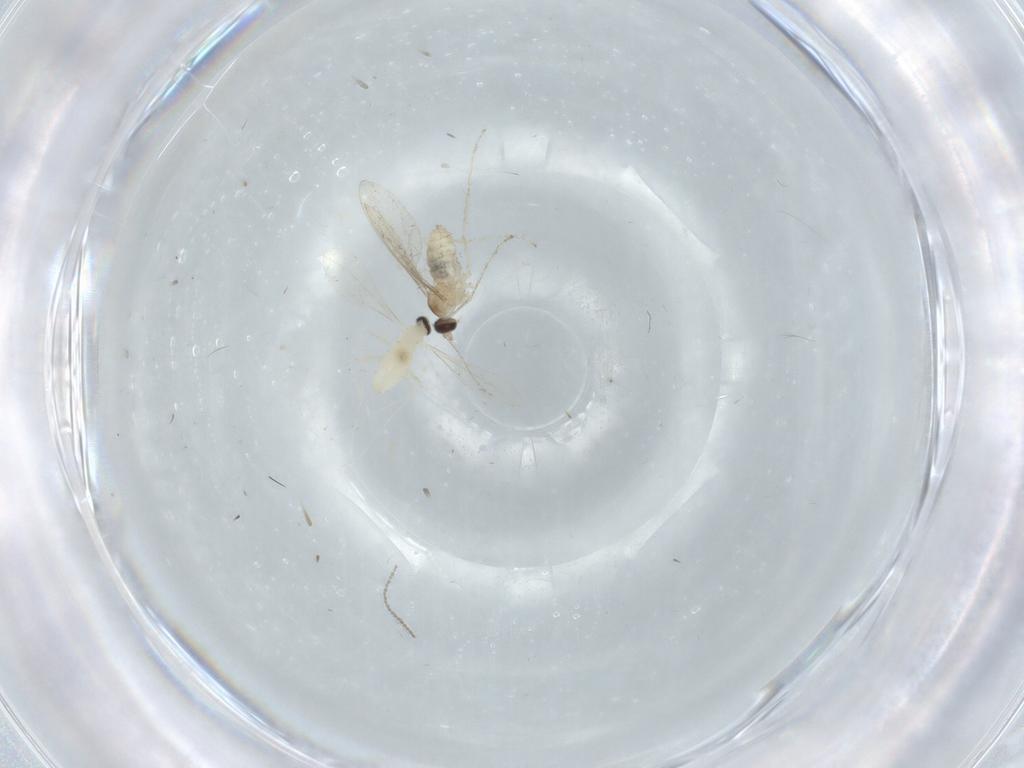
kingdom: Animalia
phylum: Arthropoda
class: Insecta
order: Diptera
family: Cecidomyiidae
